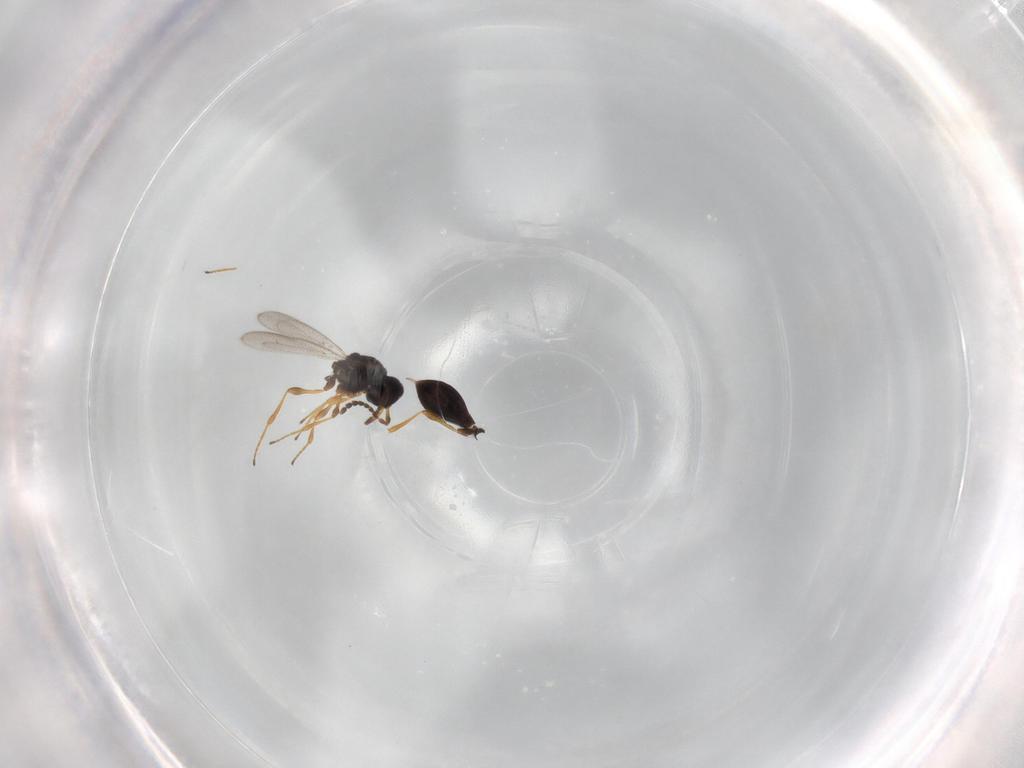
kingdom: Animalia
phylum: Arthropoda
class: Insecta
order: Diptera
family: Mythicomyiidae
